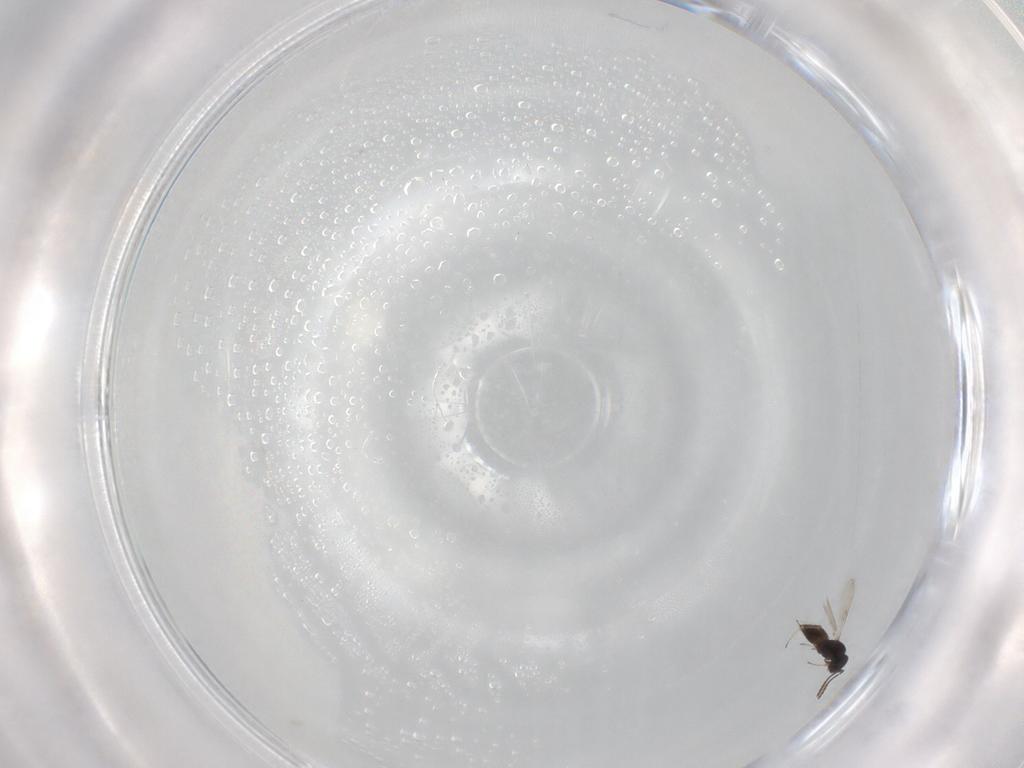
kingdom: Animalia
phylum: Arthropoda
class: Insecta
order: Hymenoptera
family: Scelionidae
